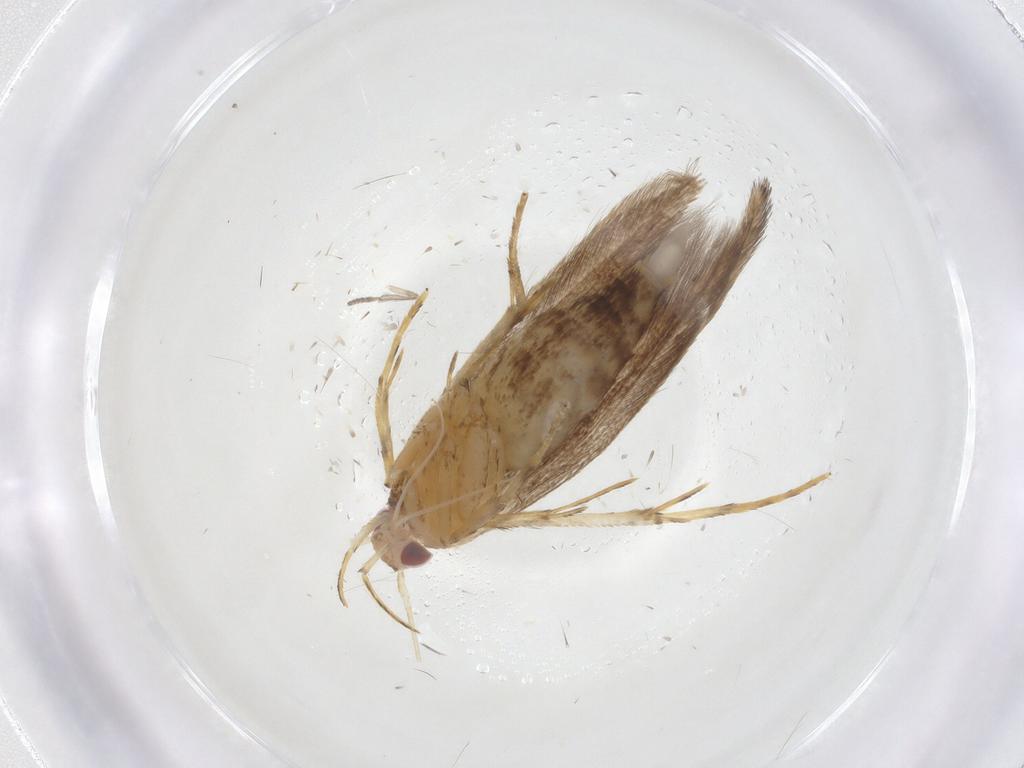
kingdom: Animalia
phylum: Arthropoda
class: Insecta
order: Lepidoptera
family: Cosmopterigidae
